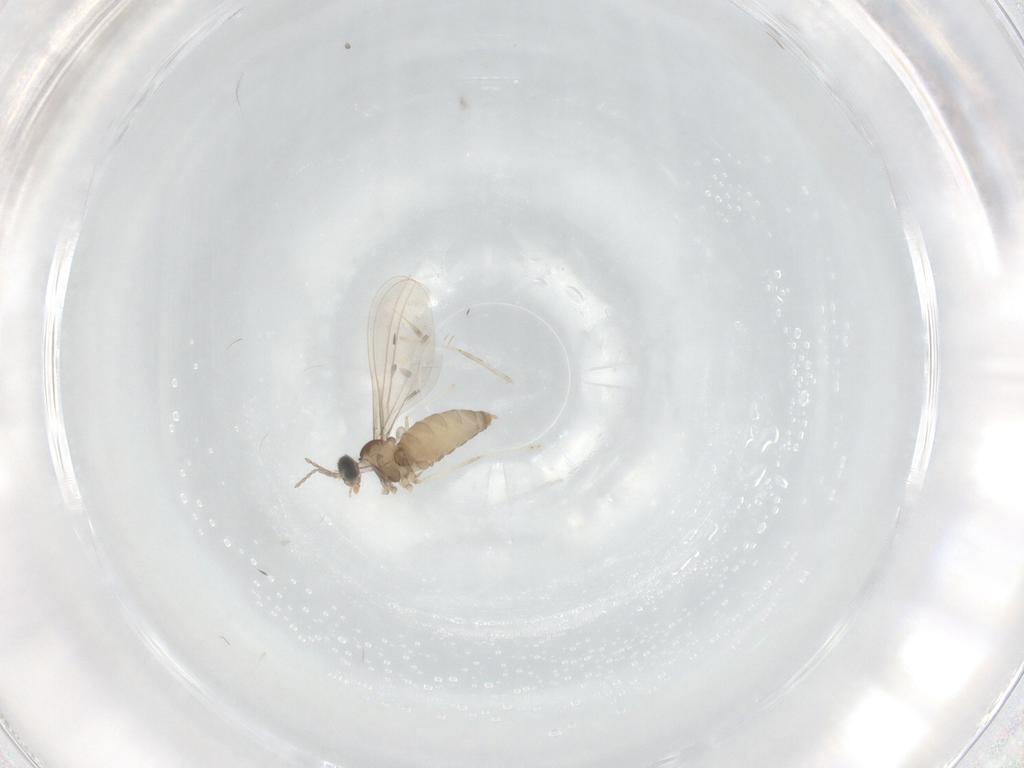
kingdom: Animalia
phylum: Arthropoda
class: Insecta
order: Diptera
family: Cecidomyiidae
